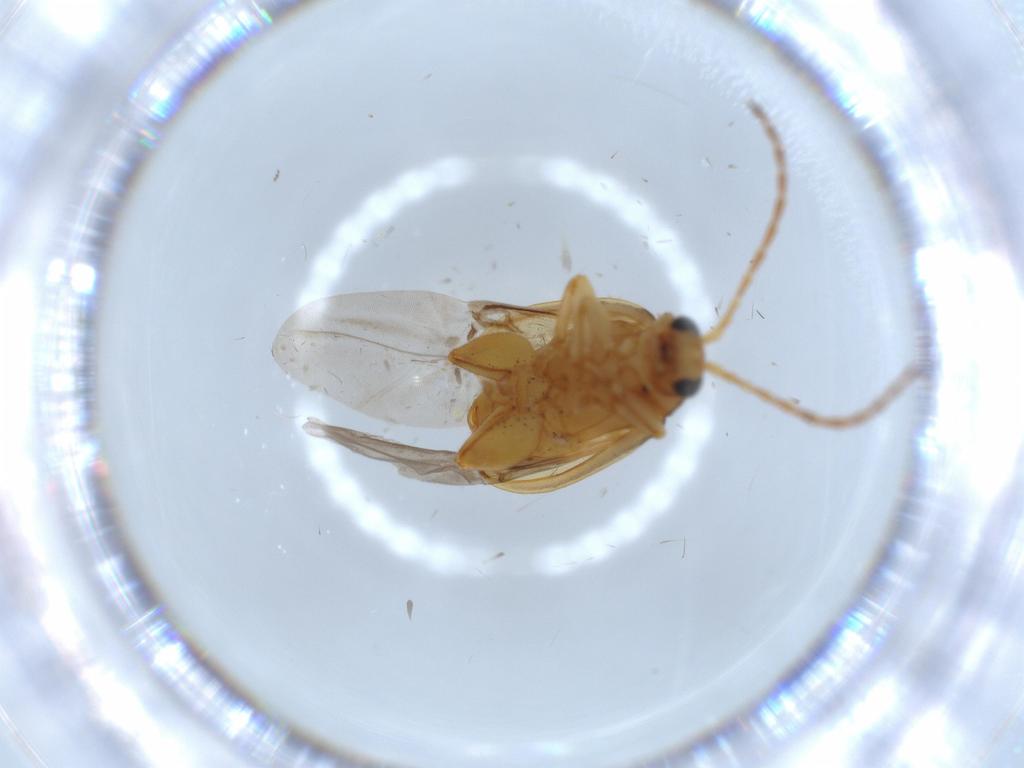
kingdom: Animalia
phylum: Arthropoda
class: Insecta
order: Coleoptera
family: Chrysomelidae
